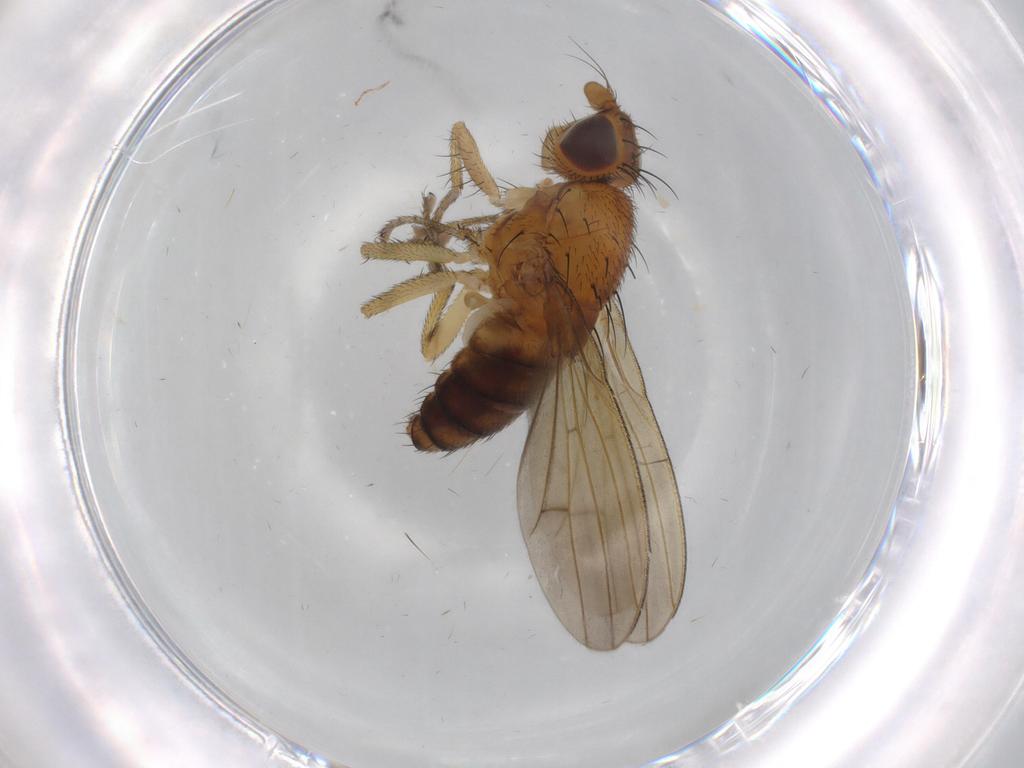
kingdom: Animalia
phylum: Arthropoda
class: Insecta
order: Diptera
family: Lauxaniidae
